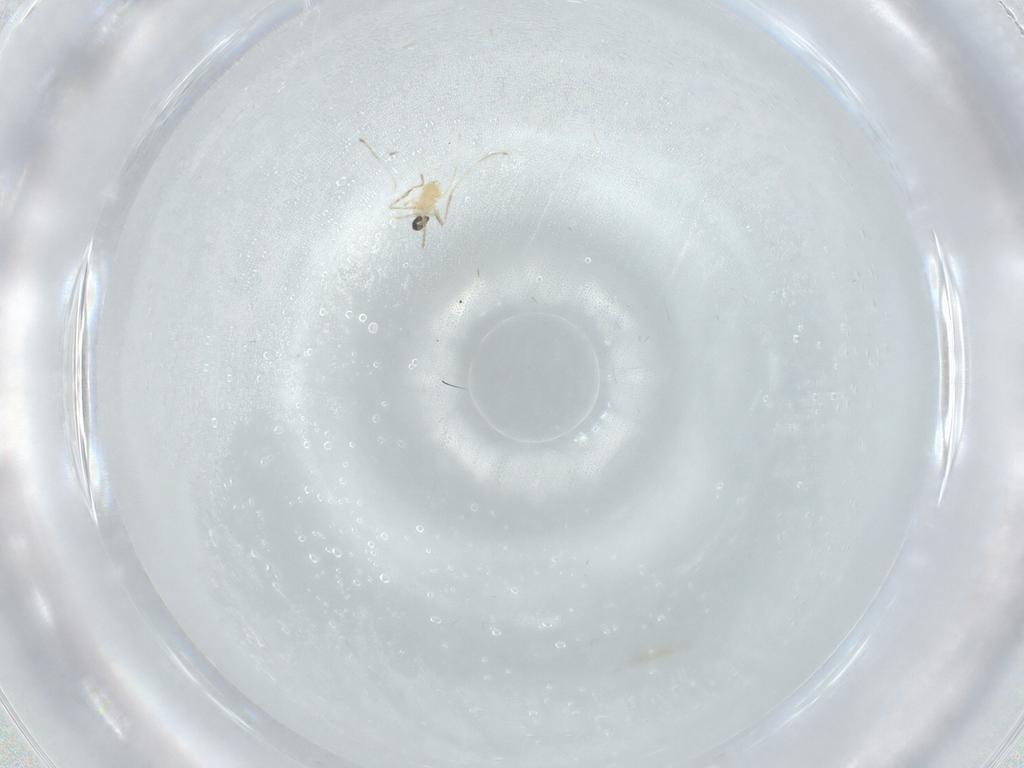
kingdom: Animalia
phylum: Arthropoda
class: Insecta
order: Diptera
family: Cecidomyiidae
